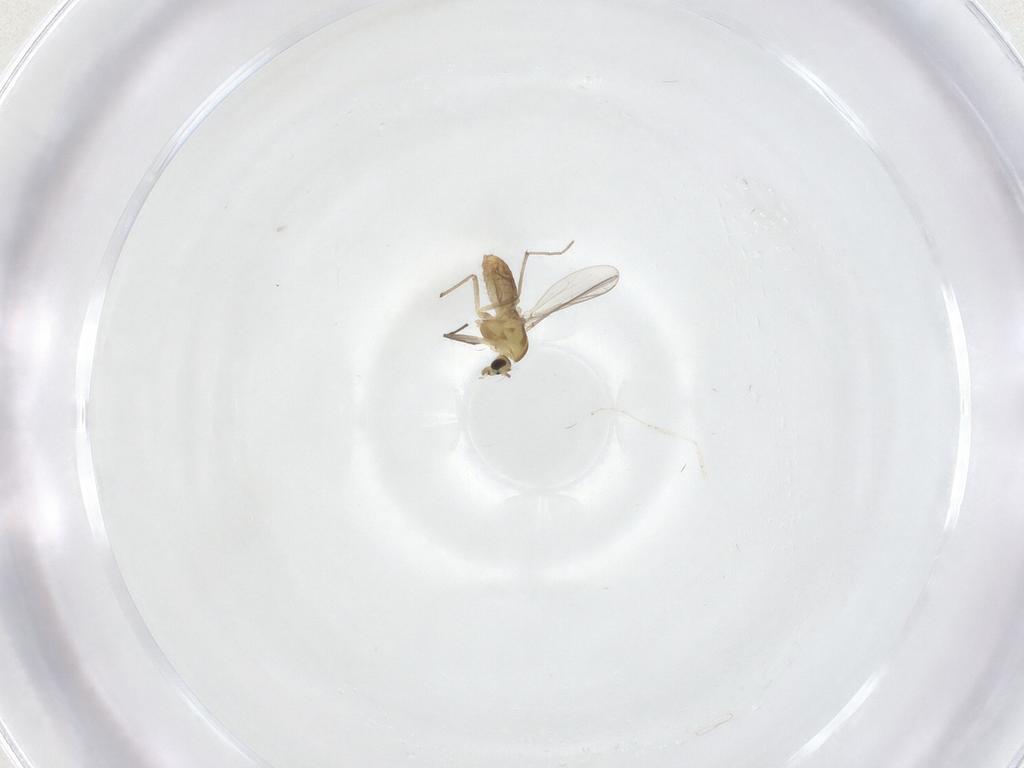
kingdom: Animalia
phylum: Arthropoda
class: Insecta
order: Diptera
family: Chironomidae
